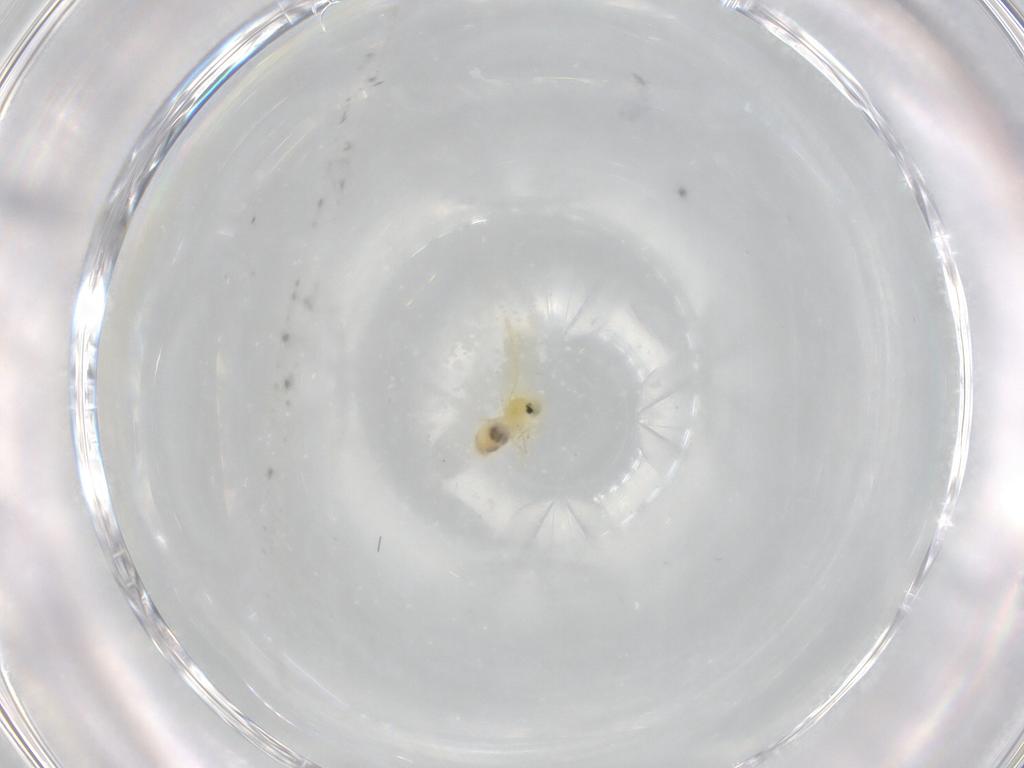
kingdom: Animalia
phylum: Arthropoda
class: Insecta
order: Hemiptera
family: Aleyrodidae
